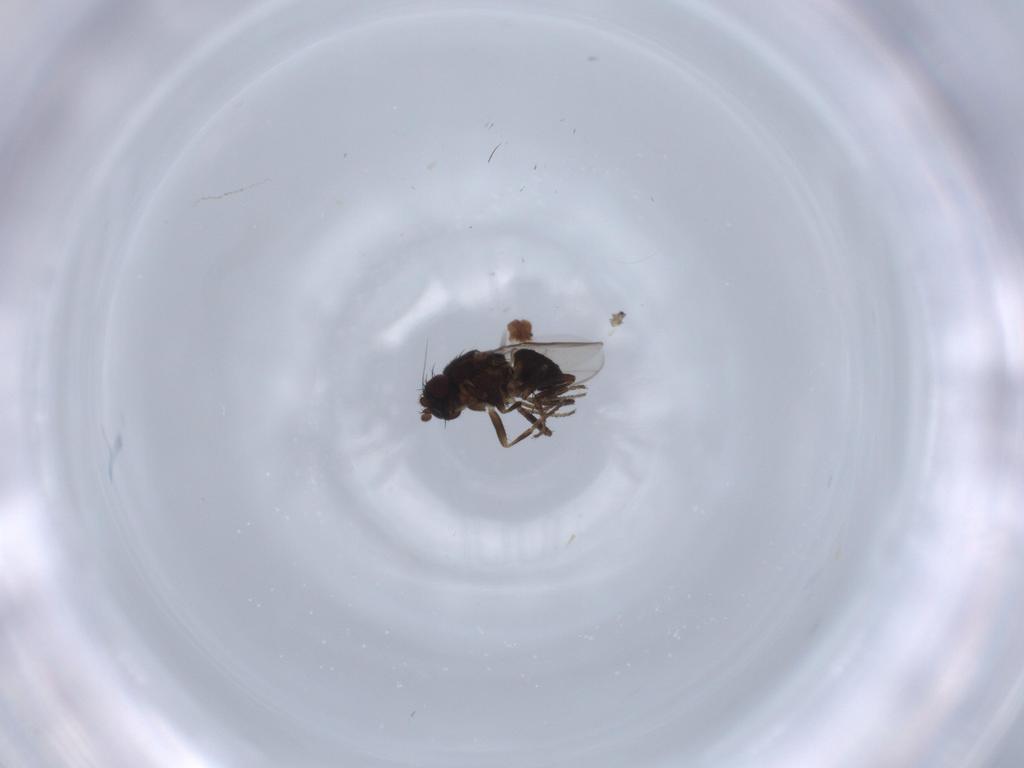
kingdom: Animalia
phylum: Arthropoda
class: Insecta
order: Diptera
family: Sphaeroceridae
